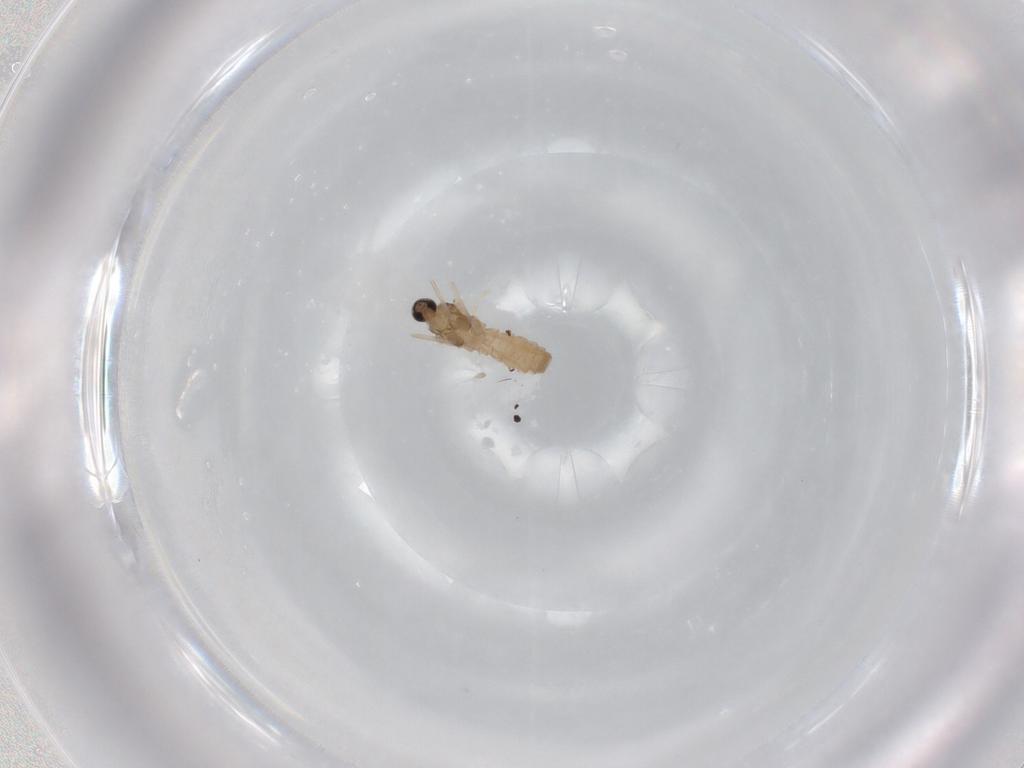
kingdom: Animalia
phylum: Arthropoda
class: Insecta
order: Diptera
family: Cecidomyiidae
